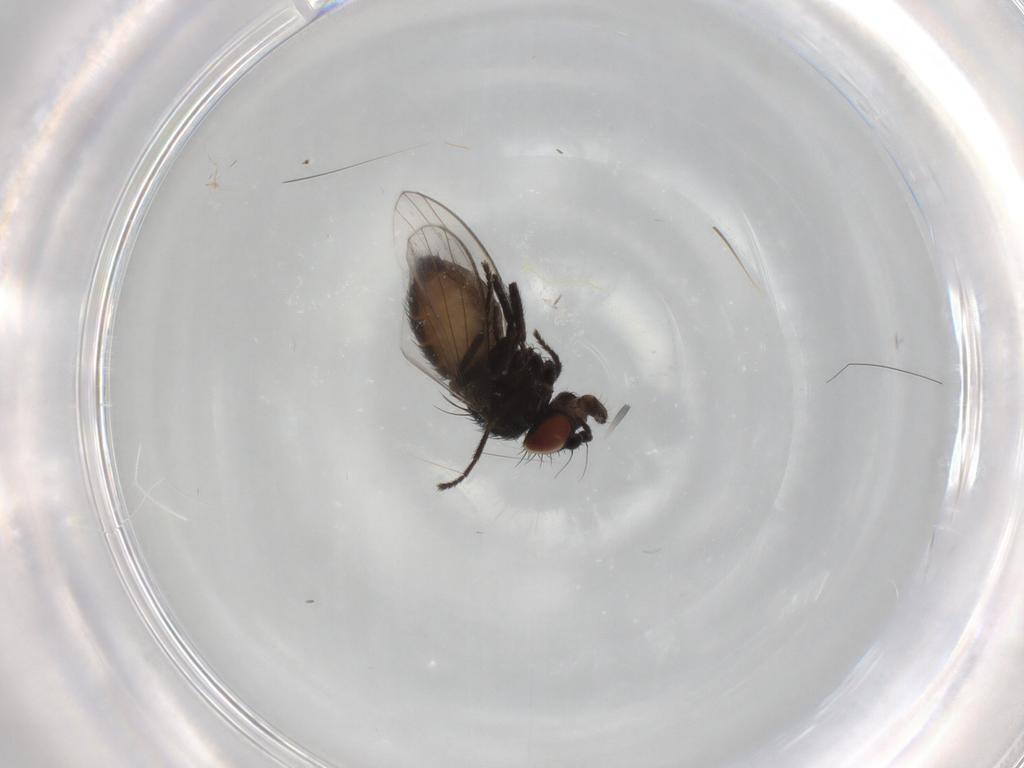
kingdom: Animalia
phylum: Arthropoda
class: Insecta
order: Diptera
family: Milichiidae
